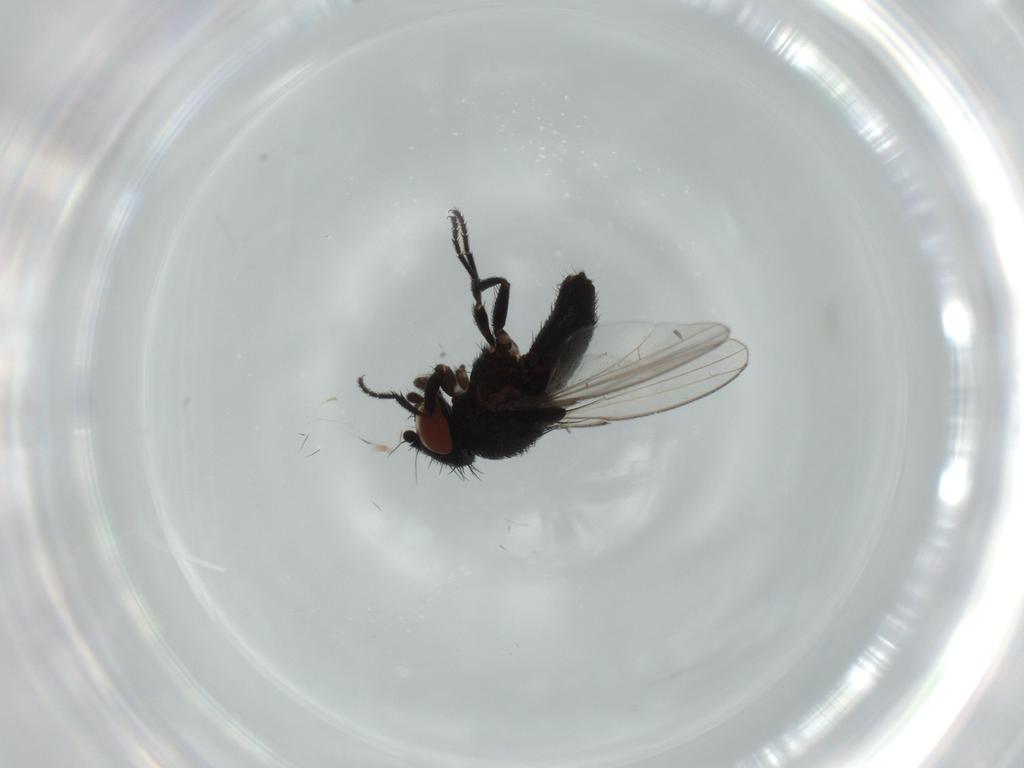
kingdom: Animalia
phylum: Arthropoda
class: Insecta
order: Diptera
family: Milichiidae
